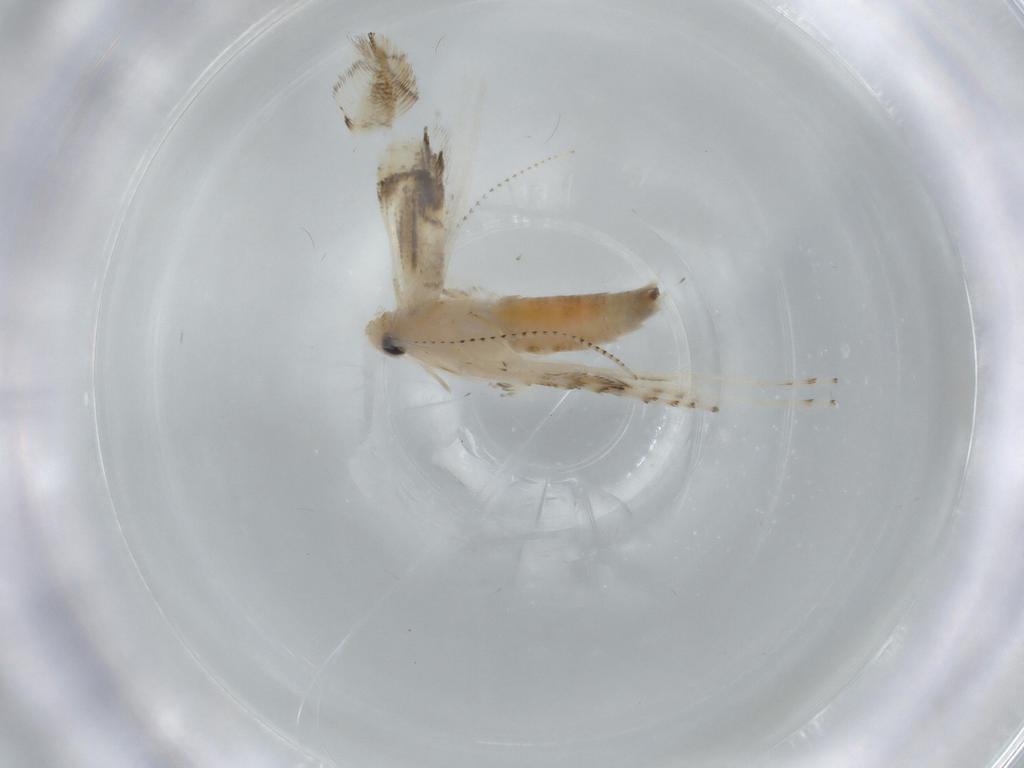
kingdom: Animalia
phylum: Arthropoda
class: Insecta
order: Lepidoptera
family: Gracillariidae
